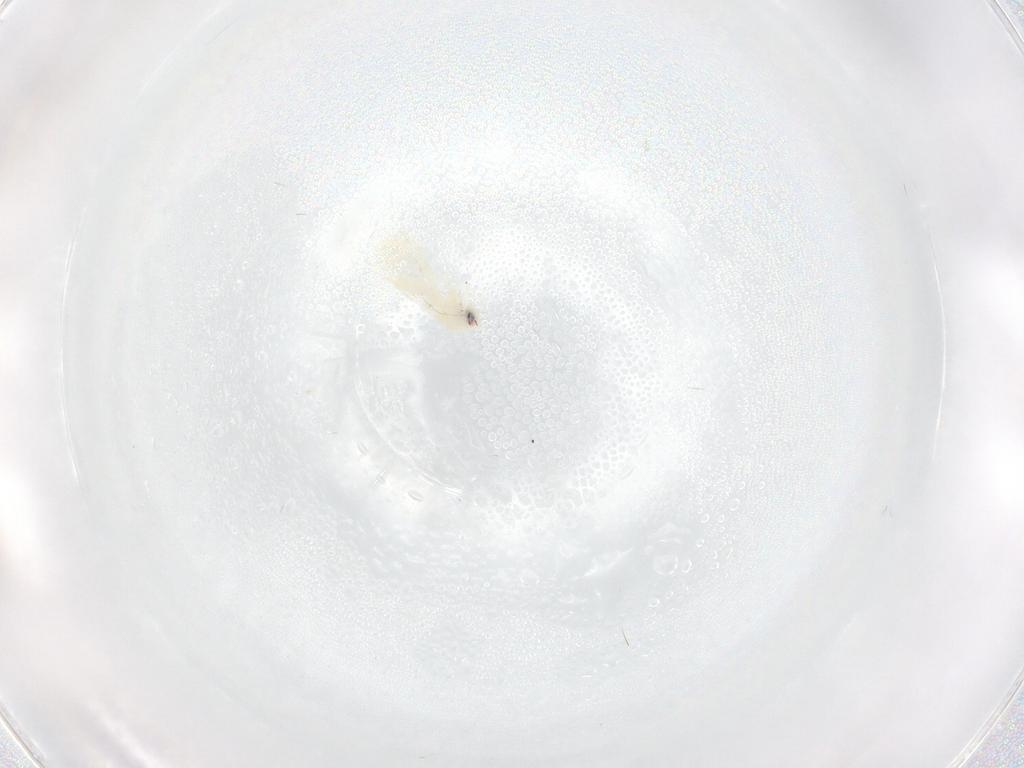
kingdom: Animalia
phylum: Arthropoda
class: Insecta
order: Hemiptera
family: Aleyrodidae
